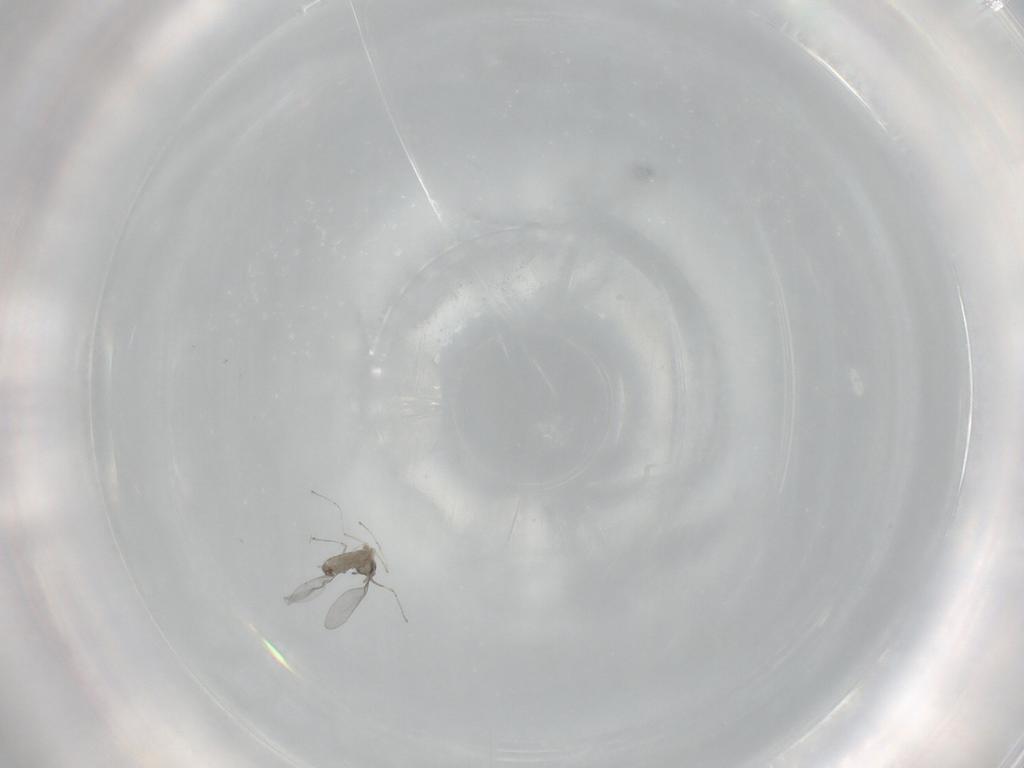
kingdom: Animalia
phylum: Arthropoda
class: Insecta
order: Diptera
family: Cecidomyiidae
